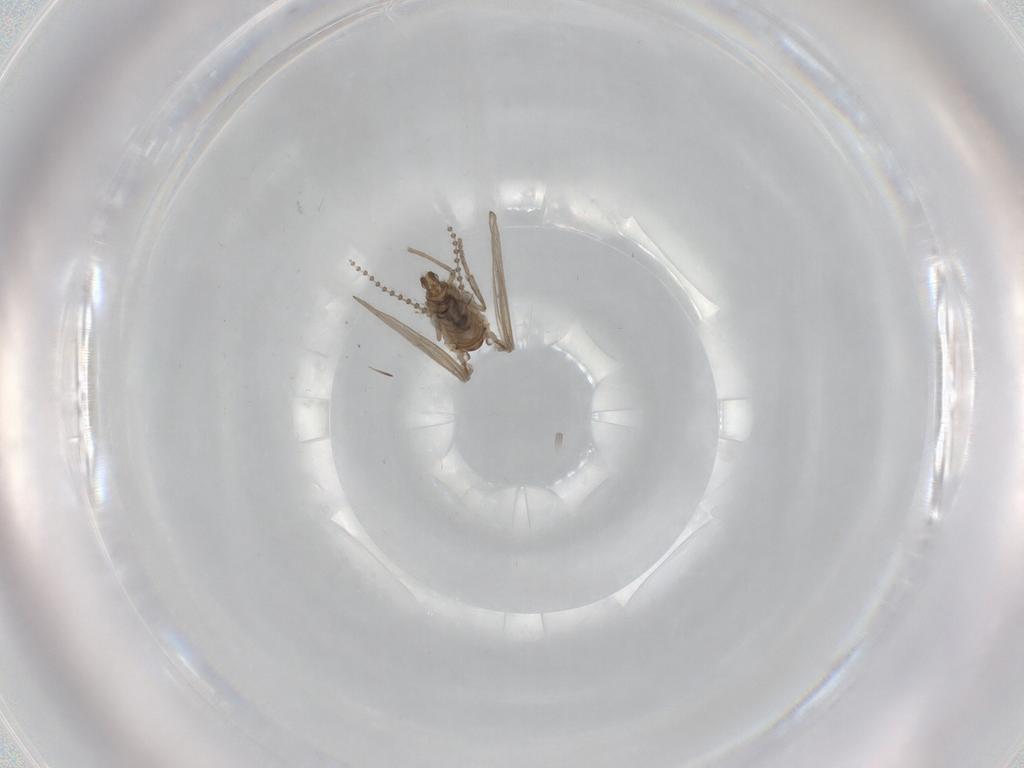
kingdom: Animalia
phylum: Arthropoda
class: Insecta
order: Diptera
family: Psychodidae
